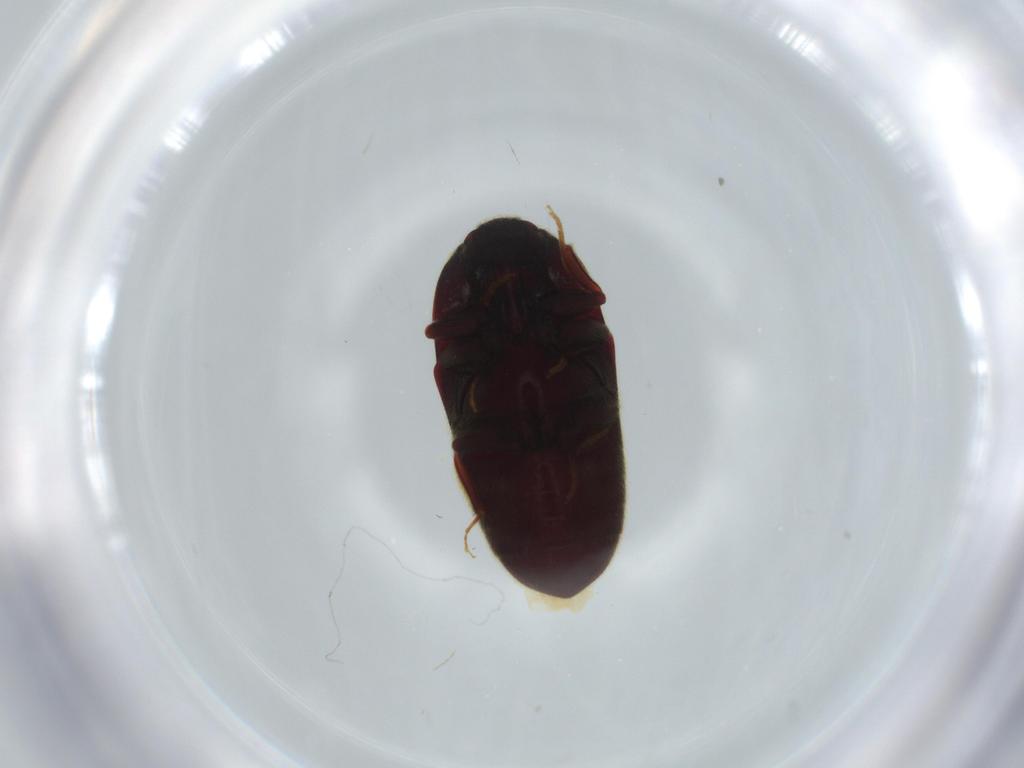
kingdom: Animalia
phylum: Arthropoda
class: Insecta
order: Coleoptera
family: Throscidae
